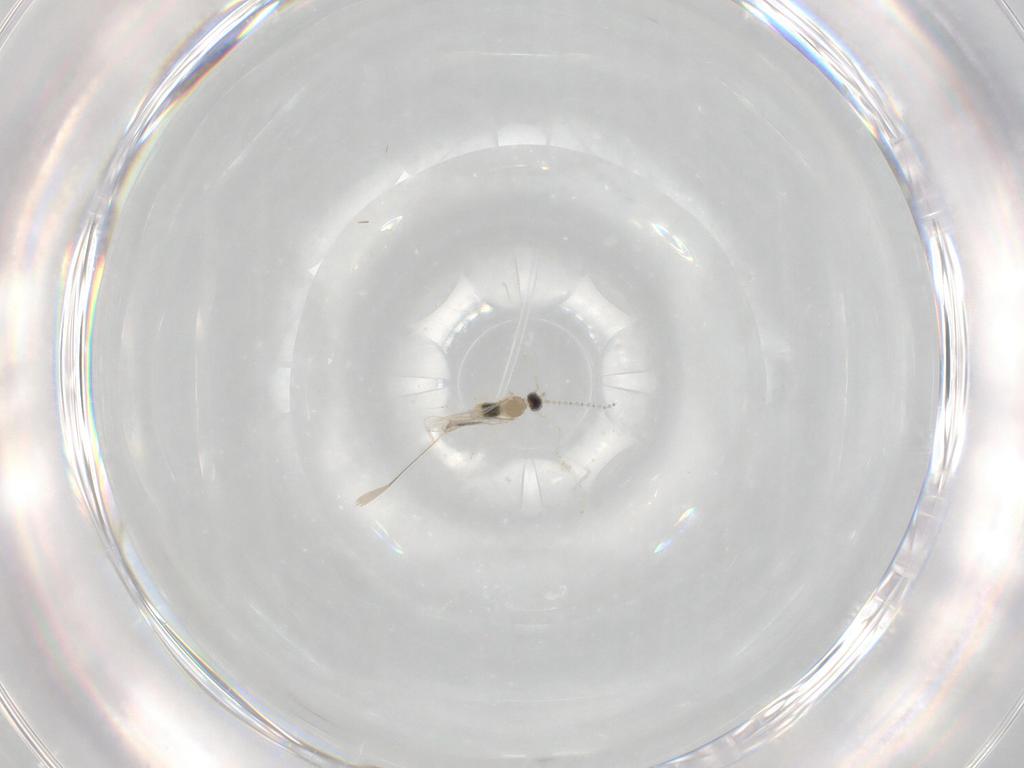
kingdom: Animalia
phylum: Arthropoda
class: Insecta
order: Diptera
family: Cecidomyiidae
